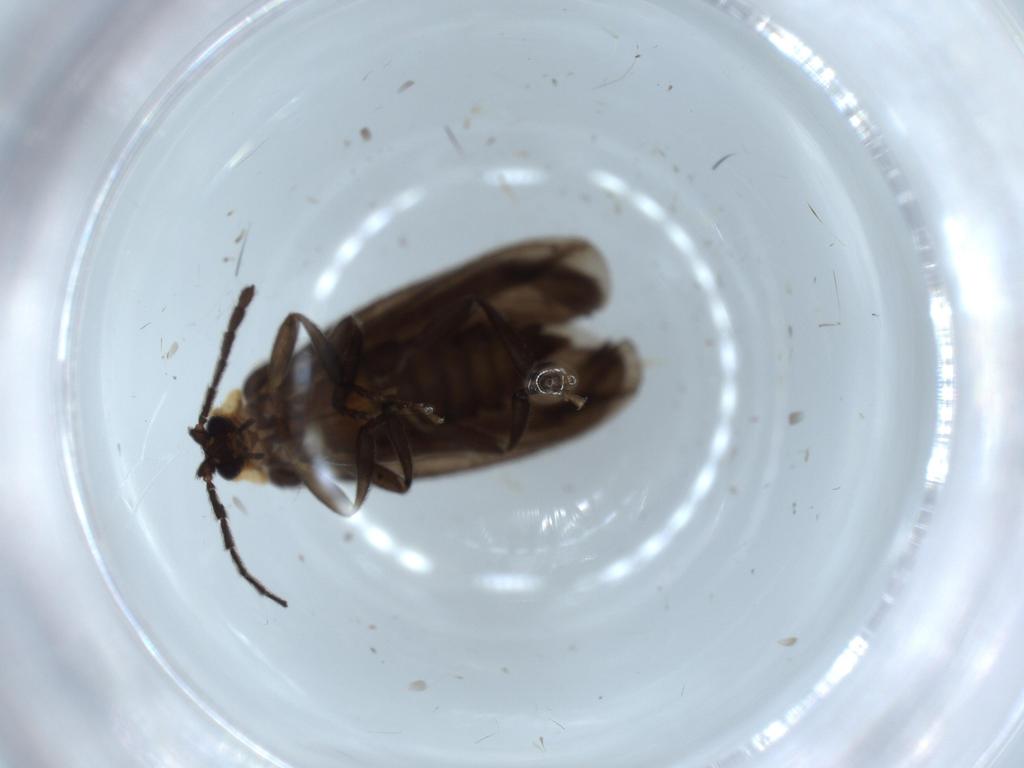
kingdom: Animalia
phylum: Arthropoda
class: Insecta
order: Coleoptera
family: Lycidae
